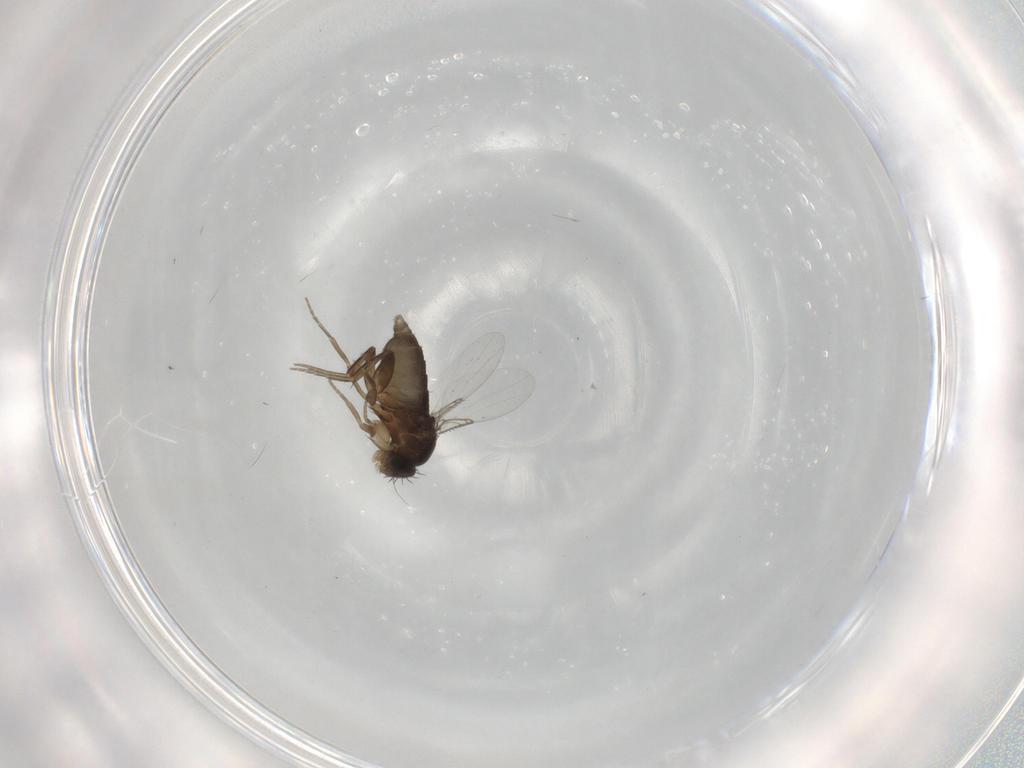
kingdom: Animalia
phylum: Arthropoda
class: Insecta
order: Diptera
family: Phoridae
